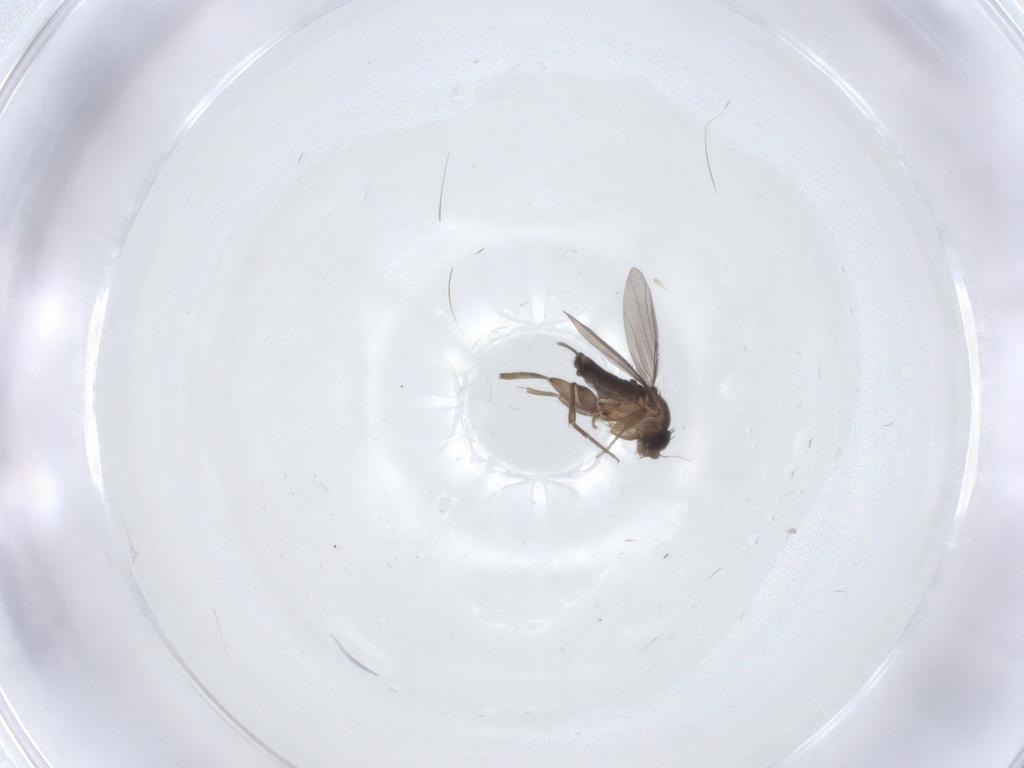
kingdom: Animalia
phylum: Arthropoda
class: Insecta
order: Diptera
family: Phoridae
